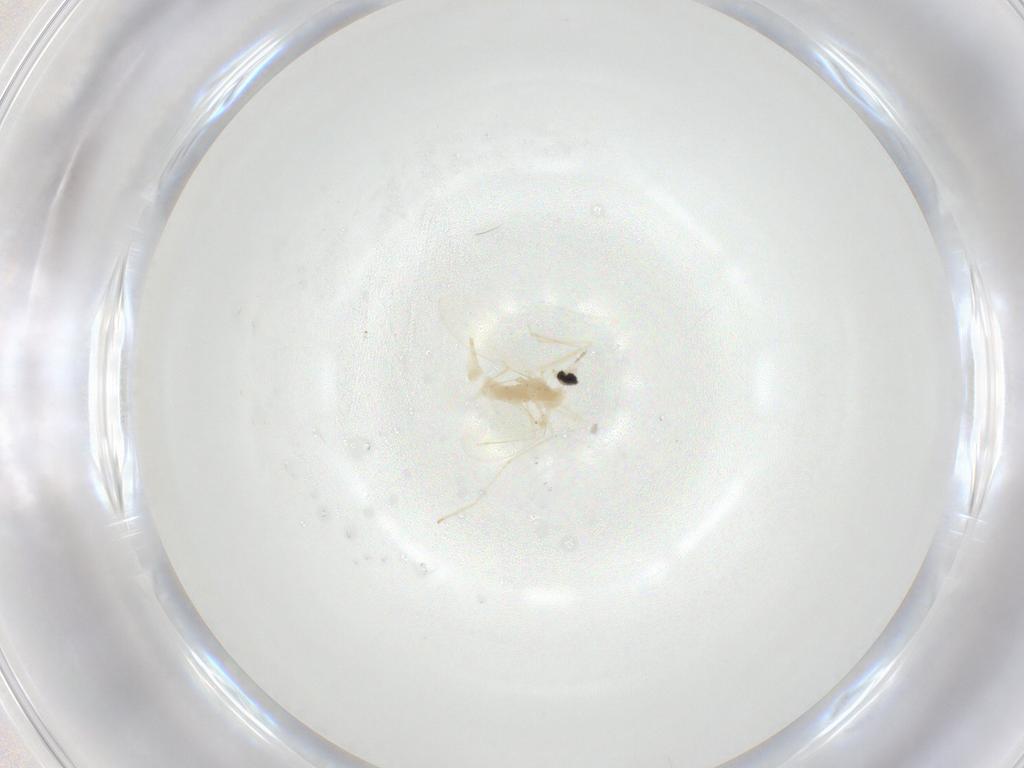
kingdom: Animalia
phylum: Arthropoda
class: Insecta
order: Diptera
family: Cecidomyiidae
